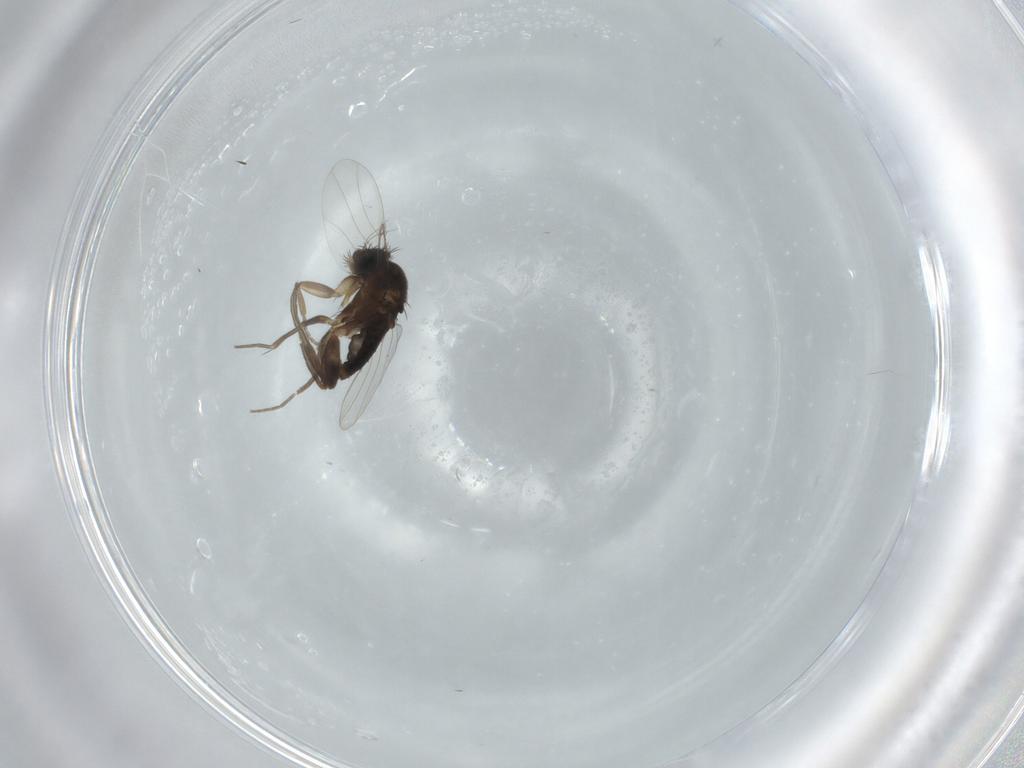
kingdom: Animalia
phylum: Arthropoda
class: Insecta
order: Diptera
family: Phoridae
